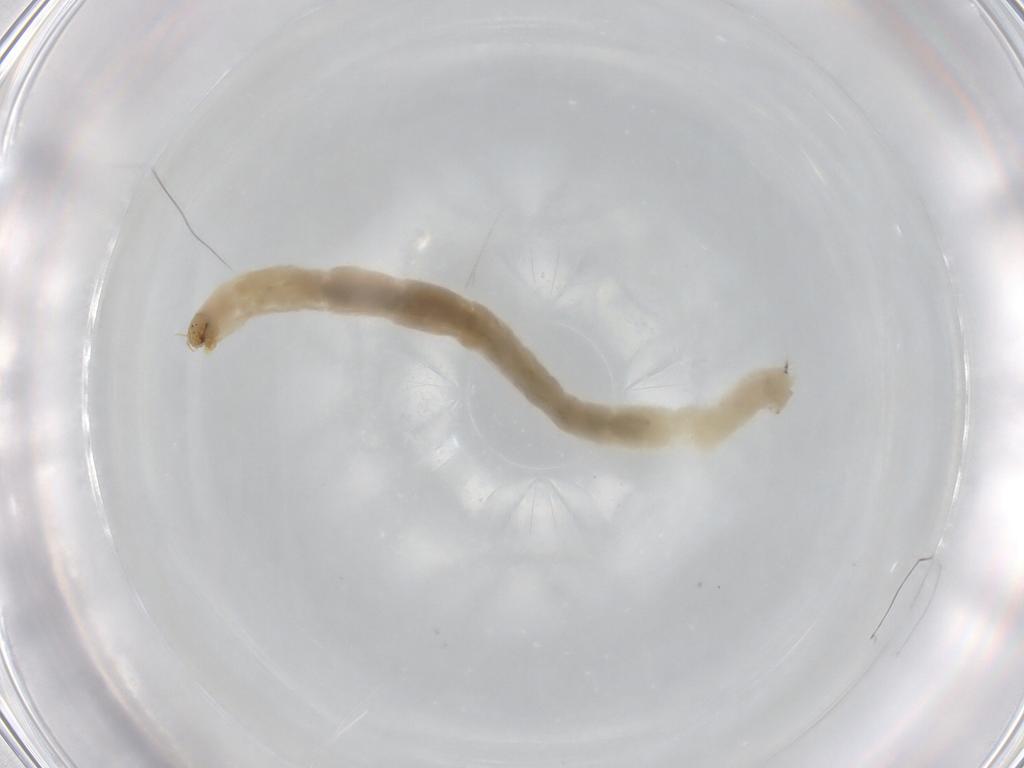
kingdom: Animalia
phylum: Arthropoda
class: Insecta
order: Diptera
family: Chironomidae
